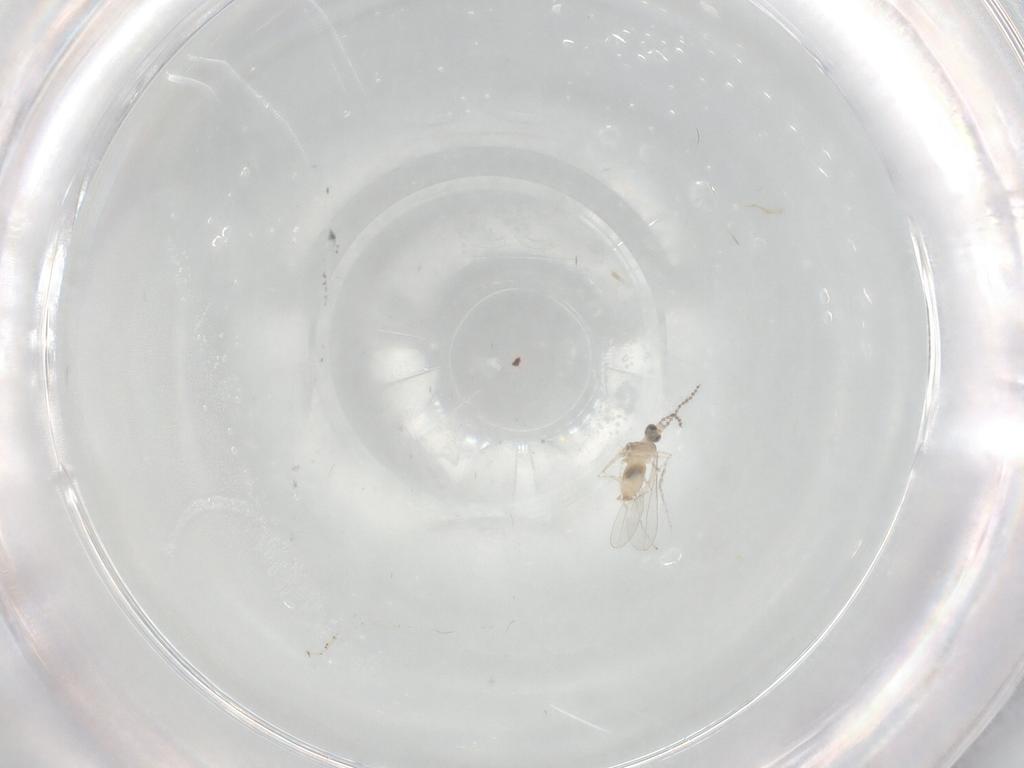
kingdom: Animalia
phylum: Arthropoda
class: Insecta
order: Diptera
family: Cecidomyiidae
